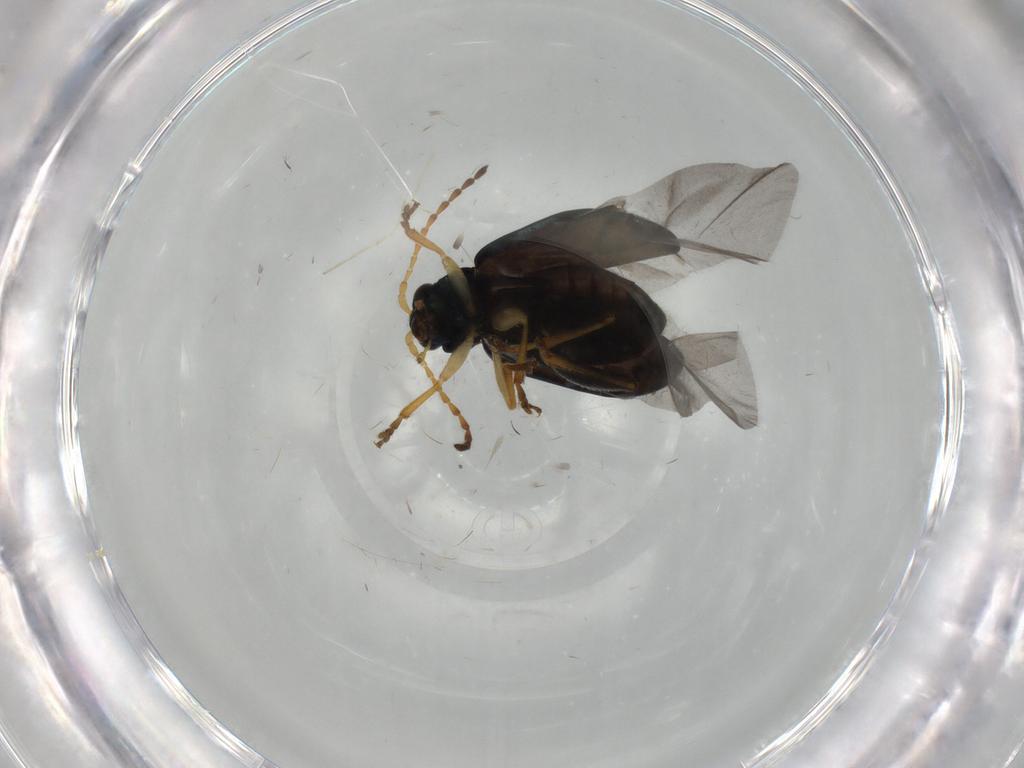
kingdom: Animalia
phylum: Arthropoda
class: Insecta
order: Coleoptera
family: Chrysomelidae
